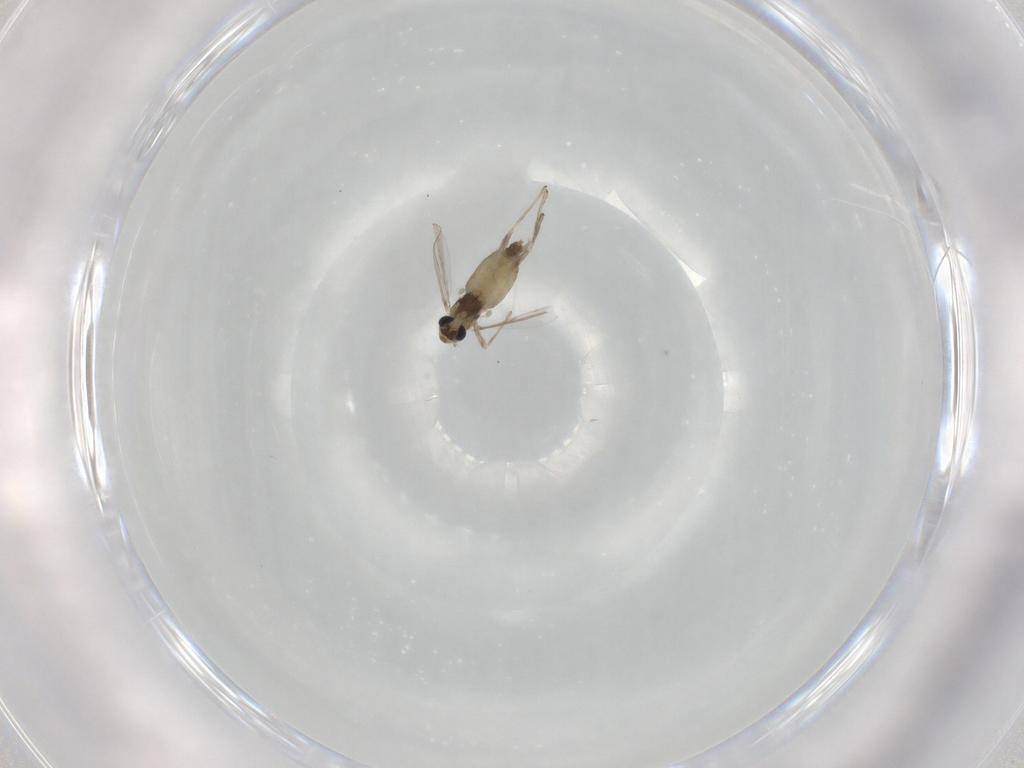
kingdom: Animalia
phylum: Arthropoda
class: Insecta
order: Diptera
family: Chironomidae
